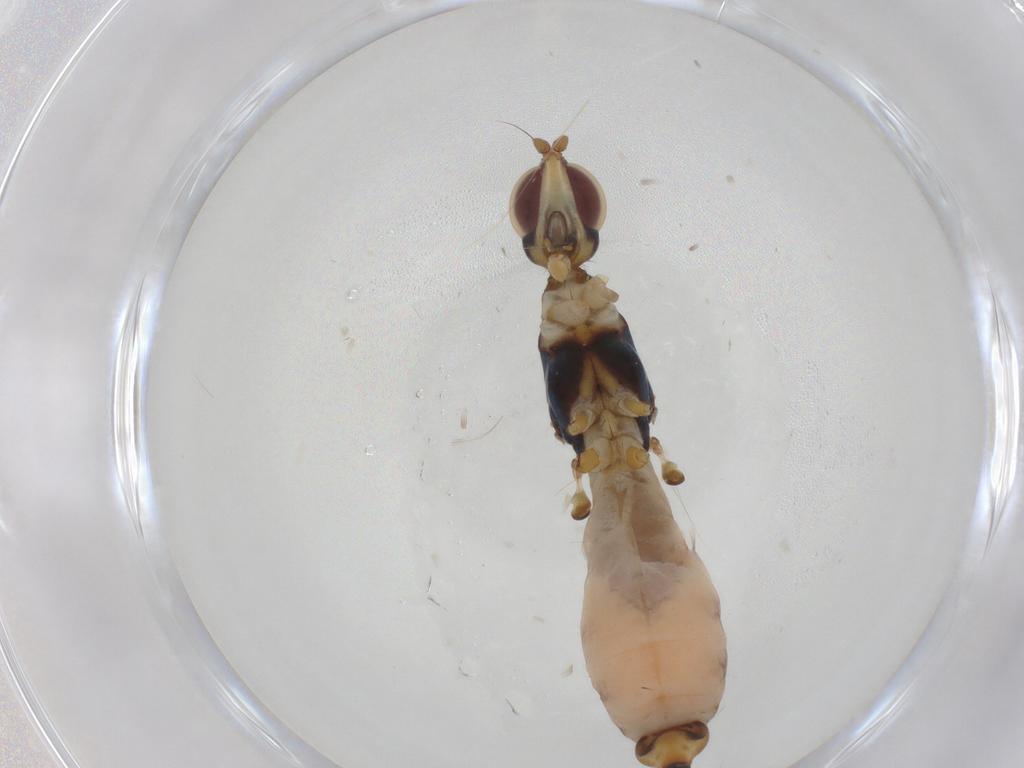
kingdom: Animalia
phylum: Arthropoda
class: Insecta
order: Diptera
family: Micropezidae
